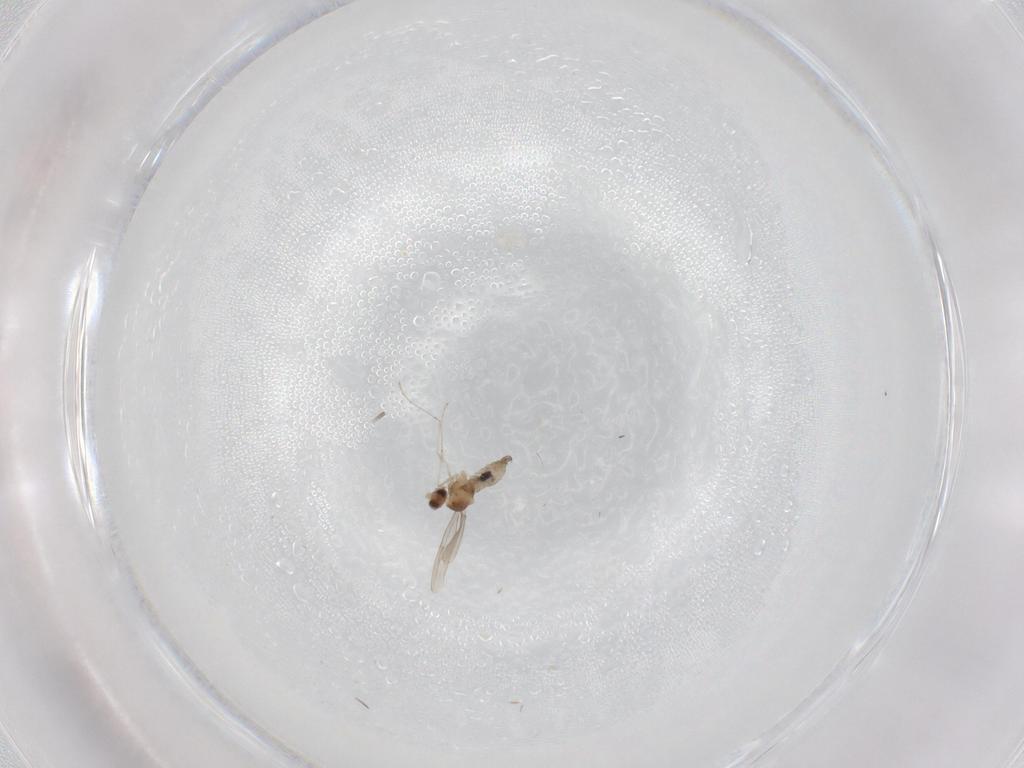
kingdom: Animalia
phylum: Arthropoda
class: Insecta
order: Diptera
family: Cecidomyiidae
